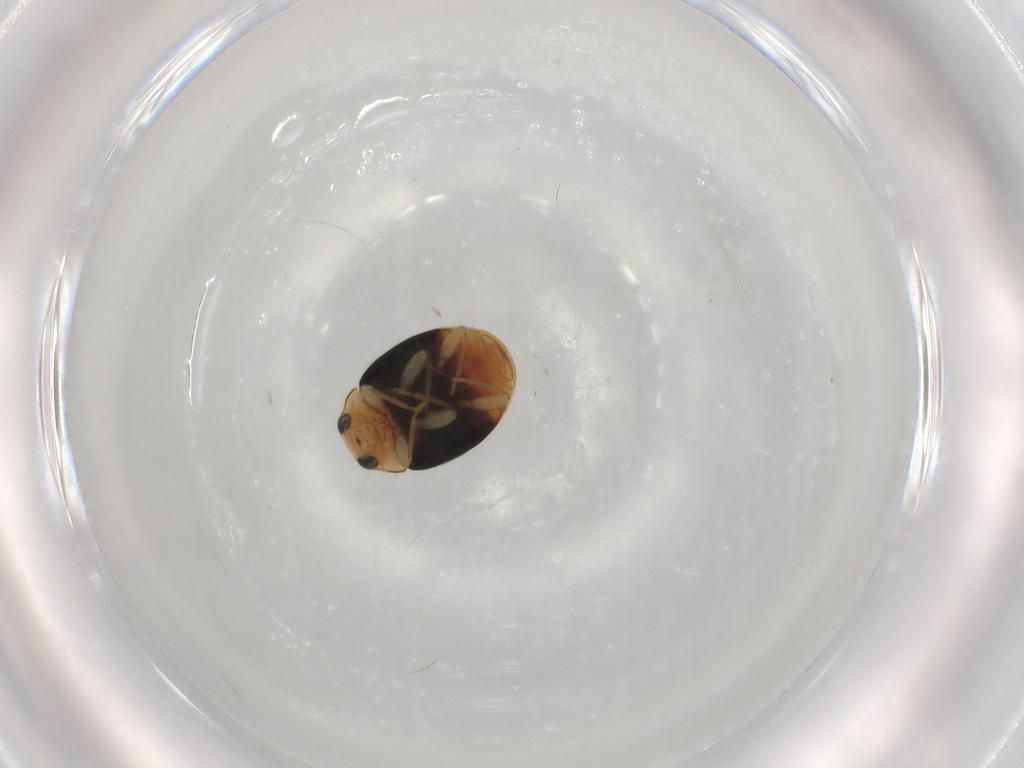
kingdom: Animalia
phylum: Arthropoda
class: Insecta
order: Coleoptera
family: Coccinellidae
